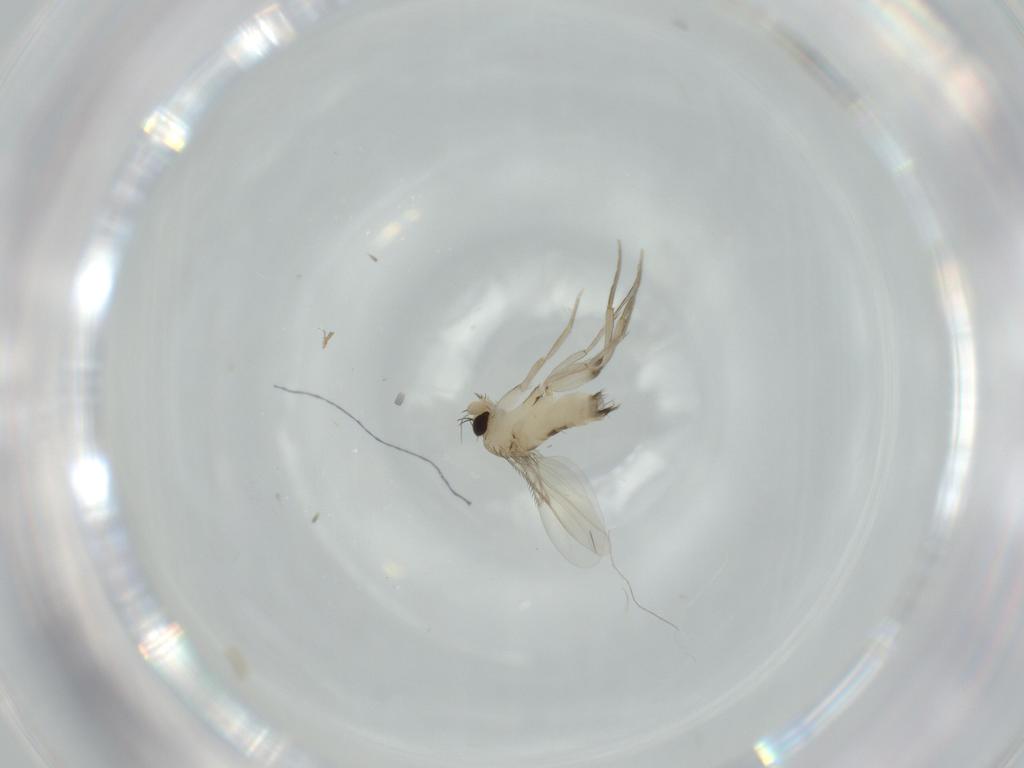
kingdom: Animalia
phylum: Arthropoda
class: Insecta
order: Diptera
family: Phoridae
